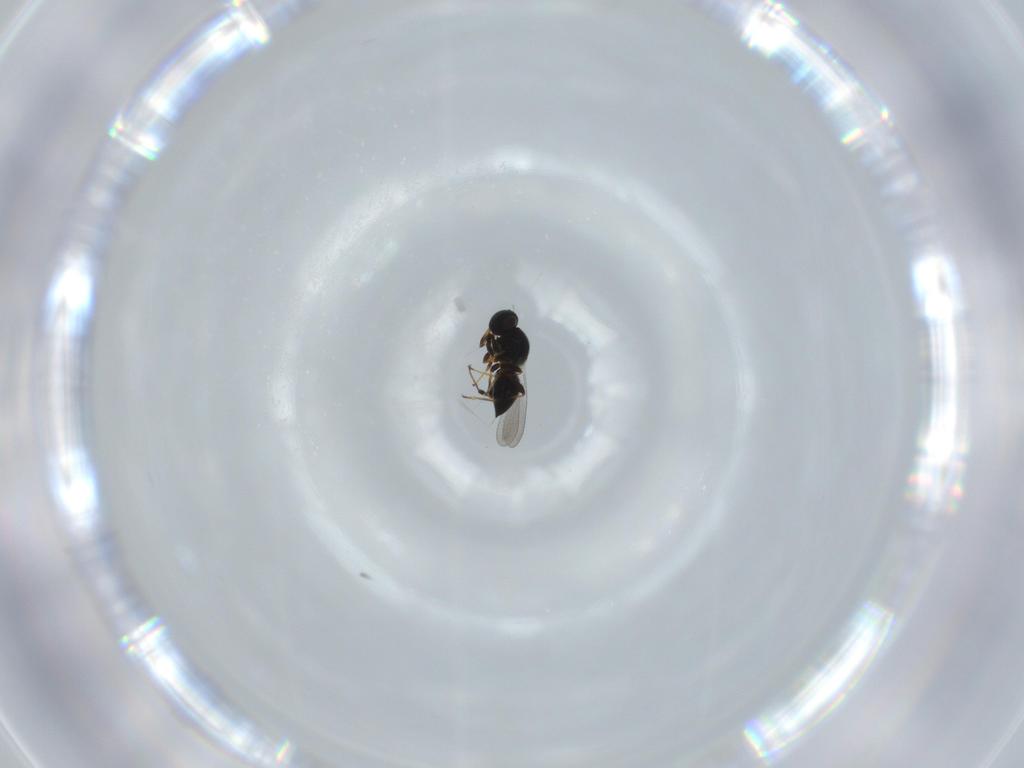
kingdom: Animalia
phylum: Arthropoda
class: Insecta
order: Hymenoptera
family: Platygastridae
